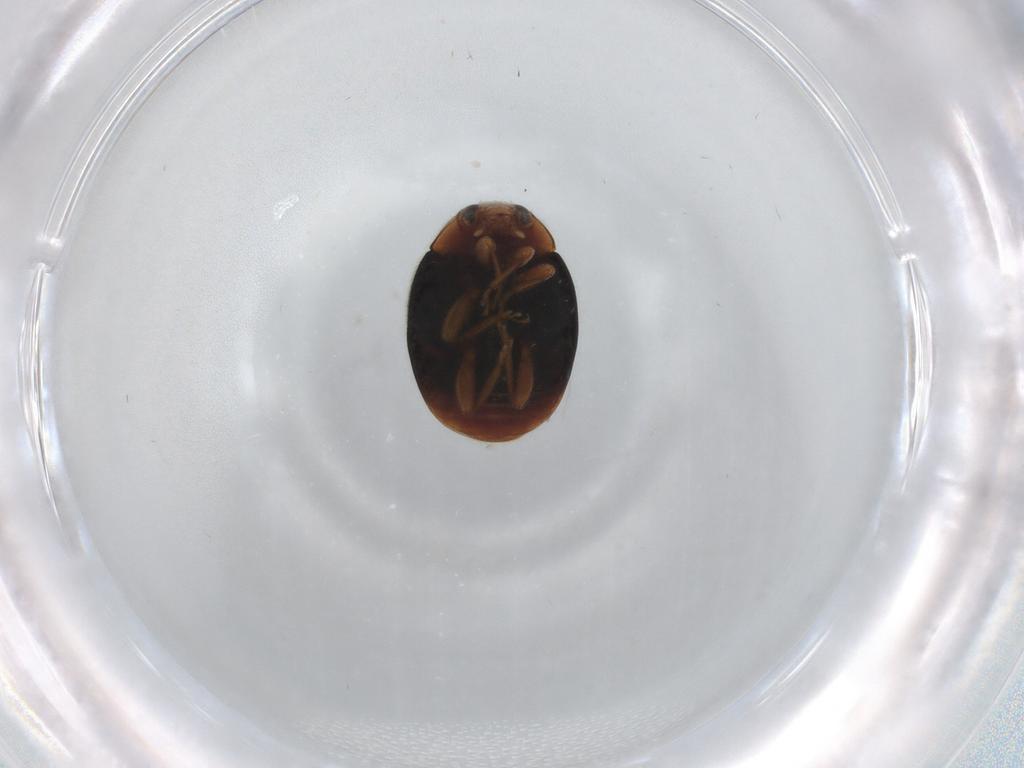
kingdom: Animalia
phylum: Arthropoda
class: Insecta
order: Coleoptera
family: Coccinellidae
